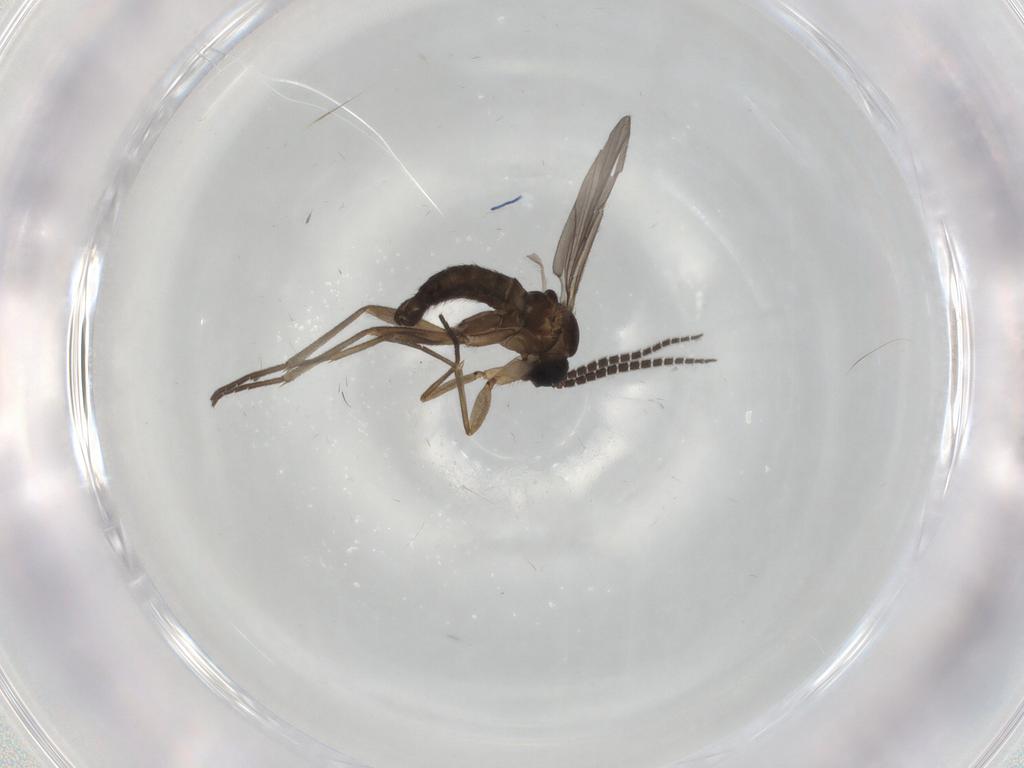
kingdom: Animalia
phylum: Arthropoda
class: Insecta
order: Diptera
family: Sciaridae
